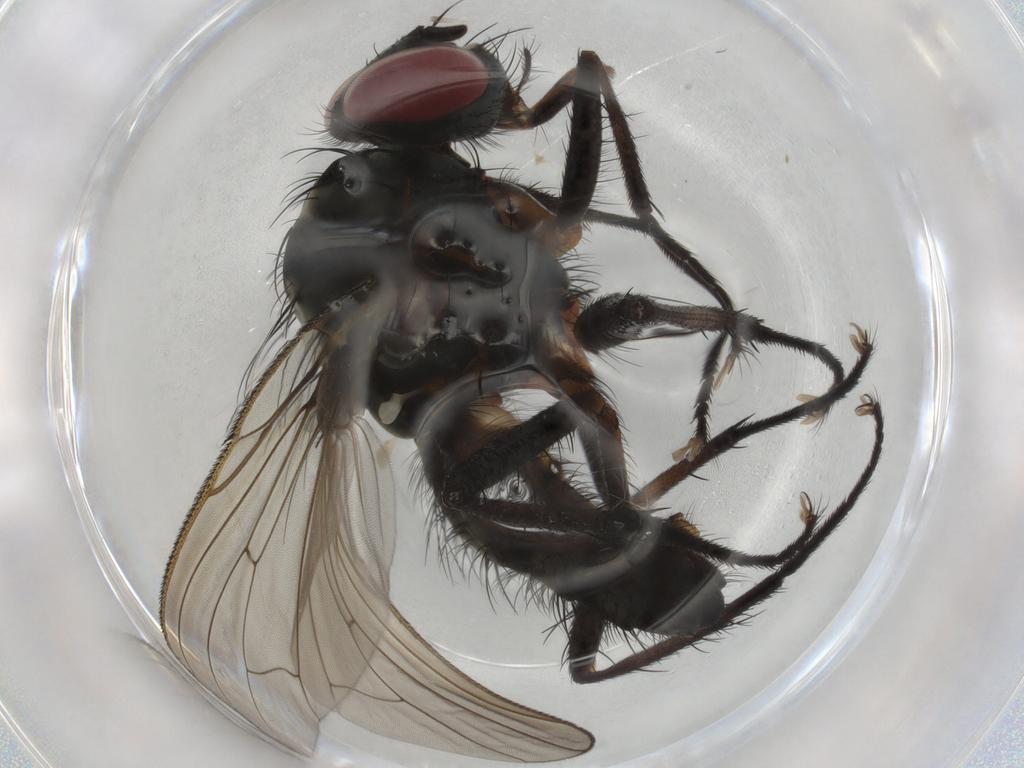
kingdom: Animalia
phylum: Arthropoda
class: Insecta
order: Diptera
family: Anthomyiidae
